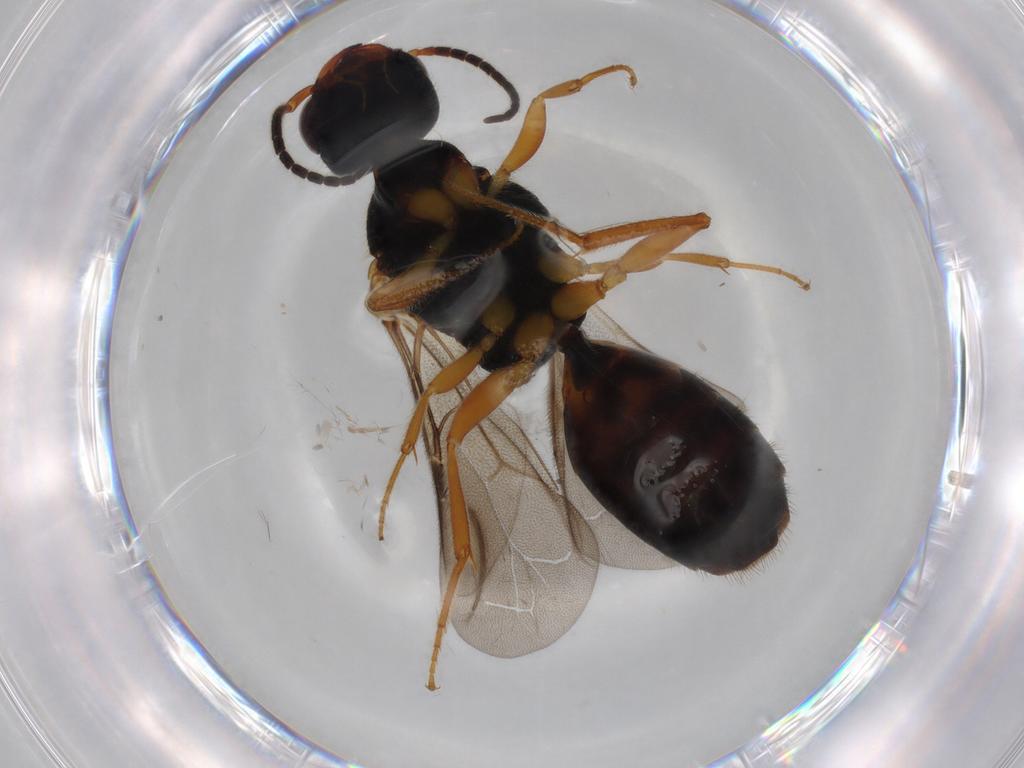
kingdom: Animalia
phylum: Arthropoda
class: Insecta
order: Hymenoptera
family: Bethylidae
